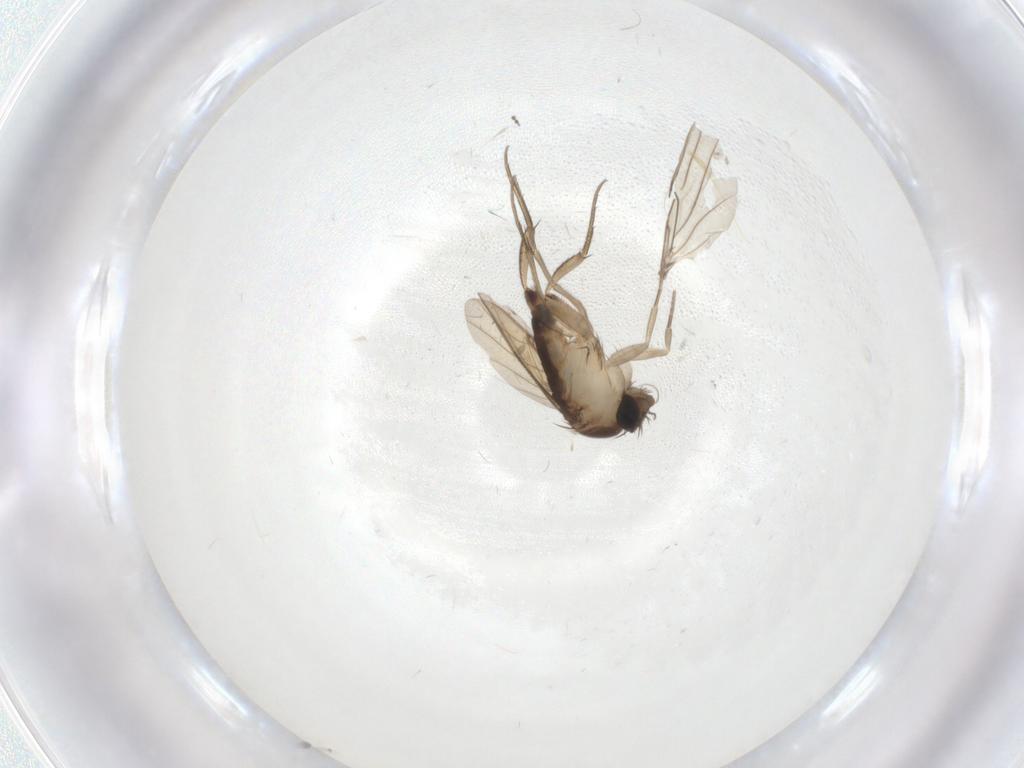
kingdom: Animalia
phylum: Arthropoda
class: Insecta
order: Diptera
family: Phoridae
